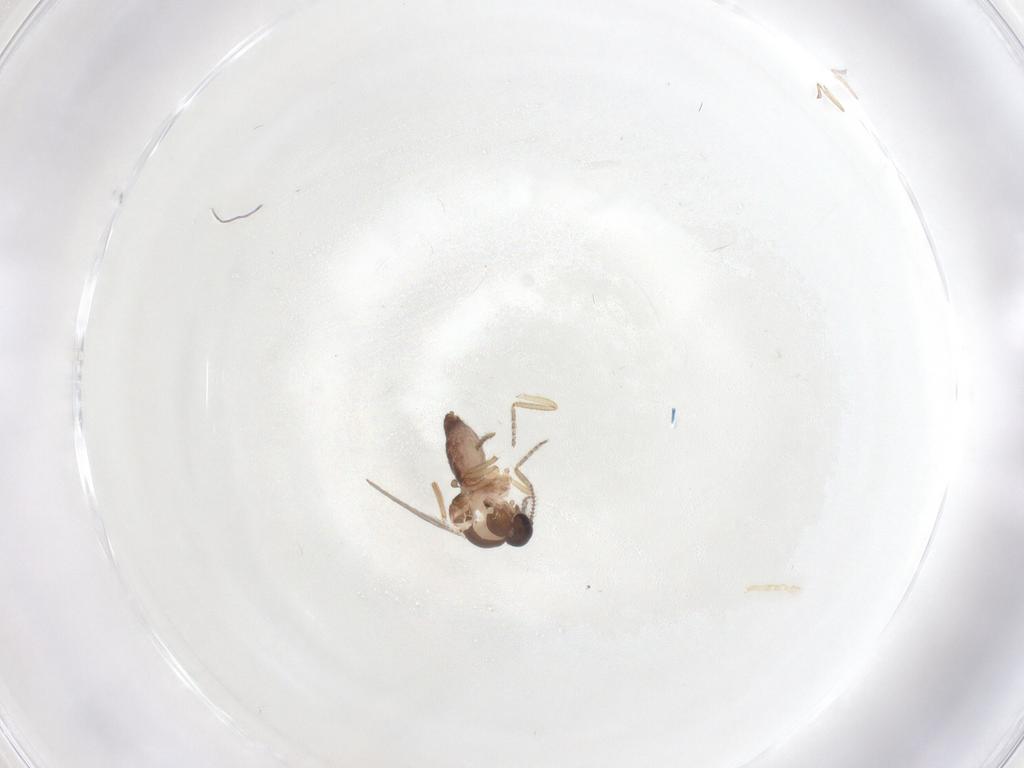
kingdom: Animalia
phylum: Arthropoda
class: Insecta
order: Diptera
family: Ceratopogonidae
